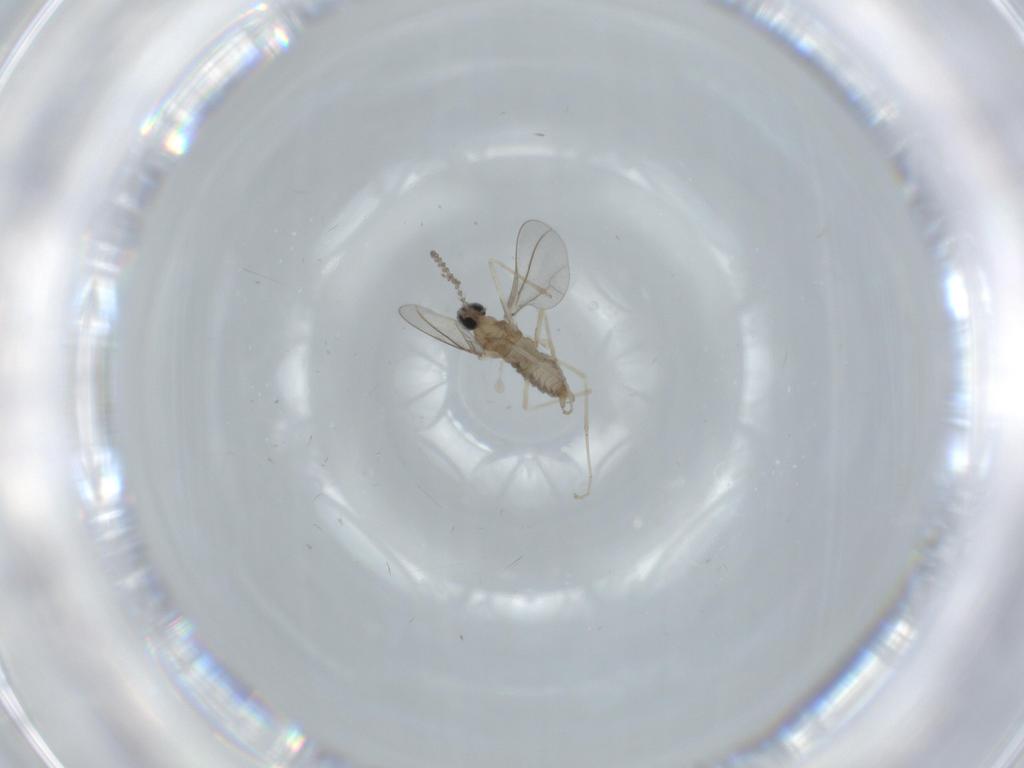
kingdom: Animalia
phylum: Arthropoda
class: Insecta
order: Diptera
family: Cecidomyiidae
